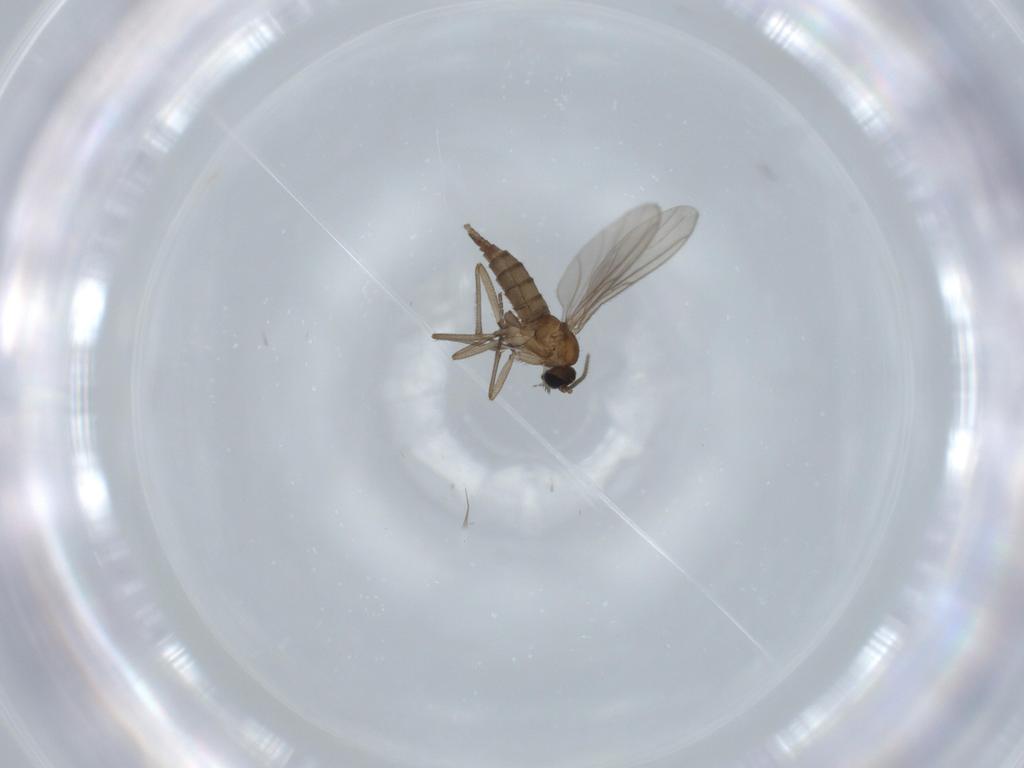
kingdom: Animalia
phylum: Arthropoda
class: Insecta
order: Diptera
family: Sciaridae
